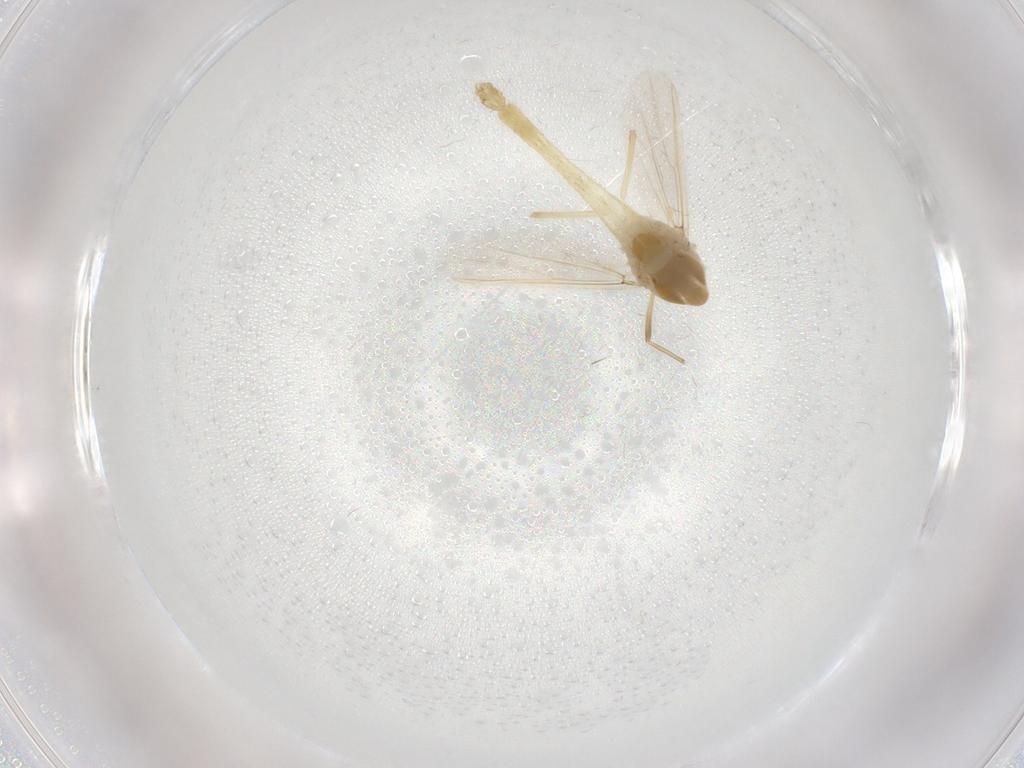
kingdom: Animalia
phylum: Arthropoda
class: Insecta
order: Diptera
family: Chironomidae
